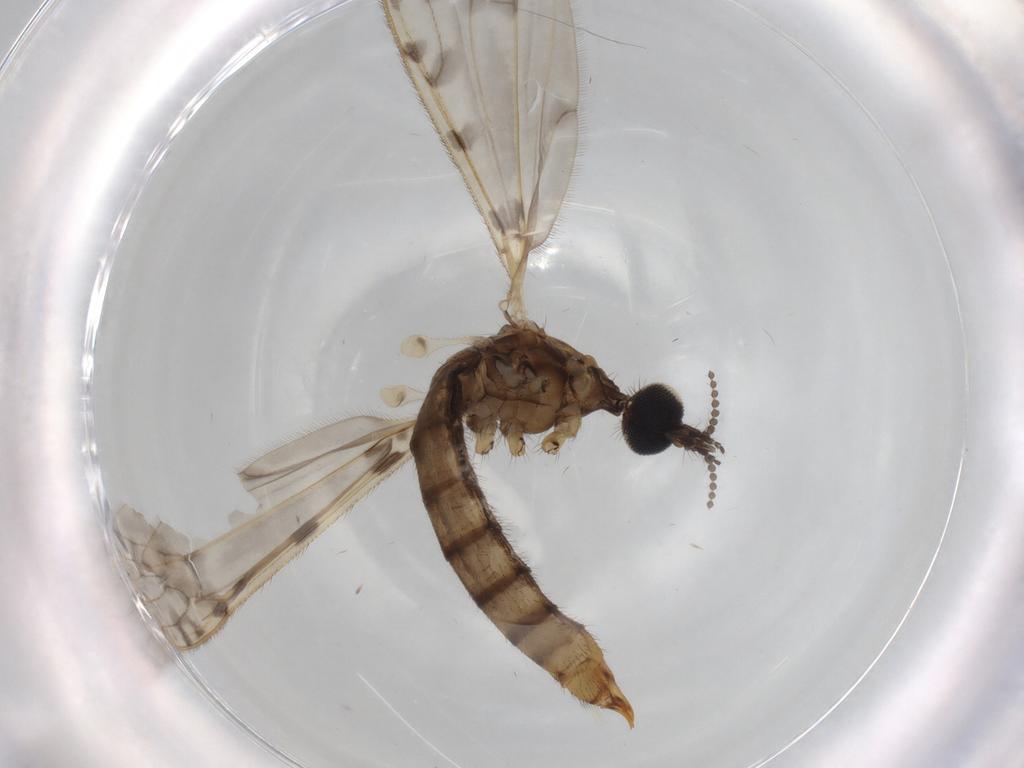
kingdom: Animalia
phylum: Arthropoda
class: Insecta
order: Diptera
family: Sphaeroceridae
